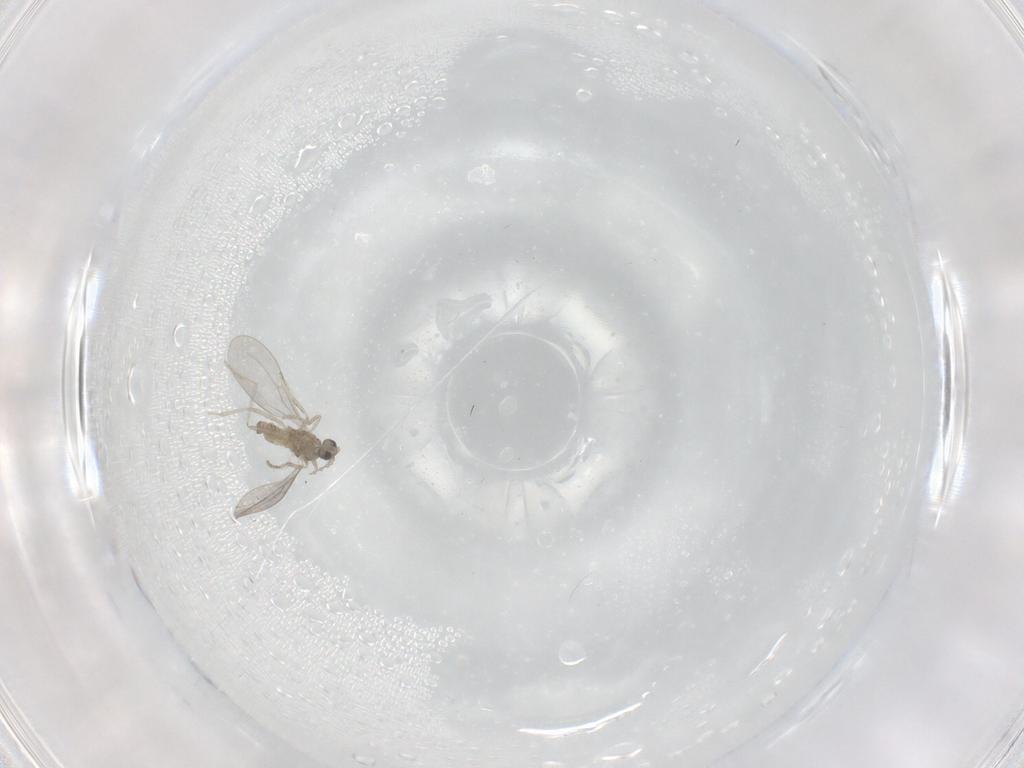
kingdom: Animalia
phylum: Arthropoda
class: Insecta
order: Diptera
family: Cecidomyiidae
